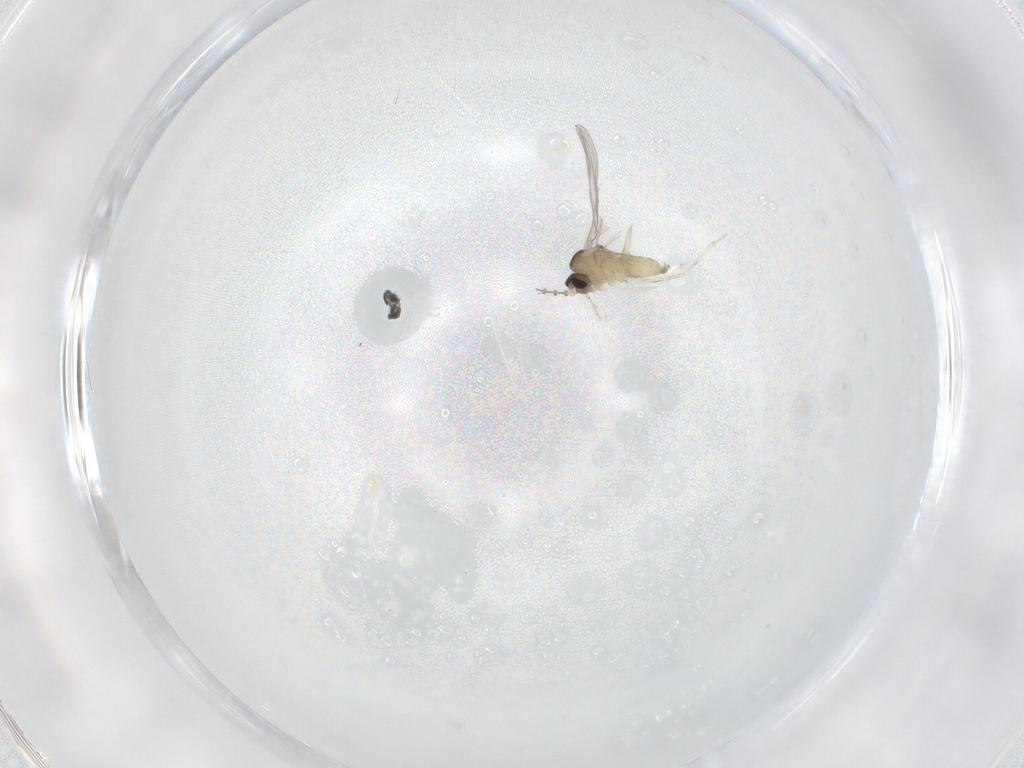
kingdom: Animalia
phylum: Arthropoda
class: Insecta
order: Diptera
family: Cecidomyiidae
